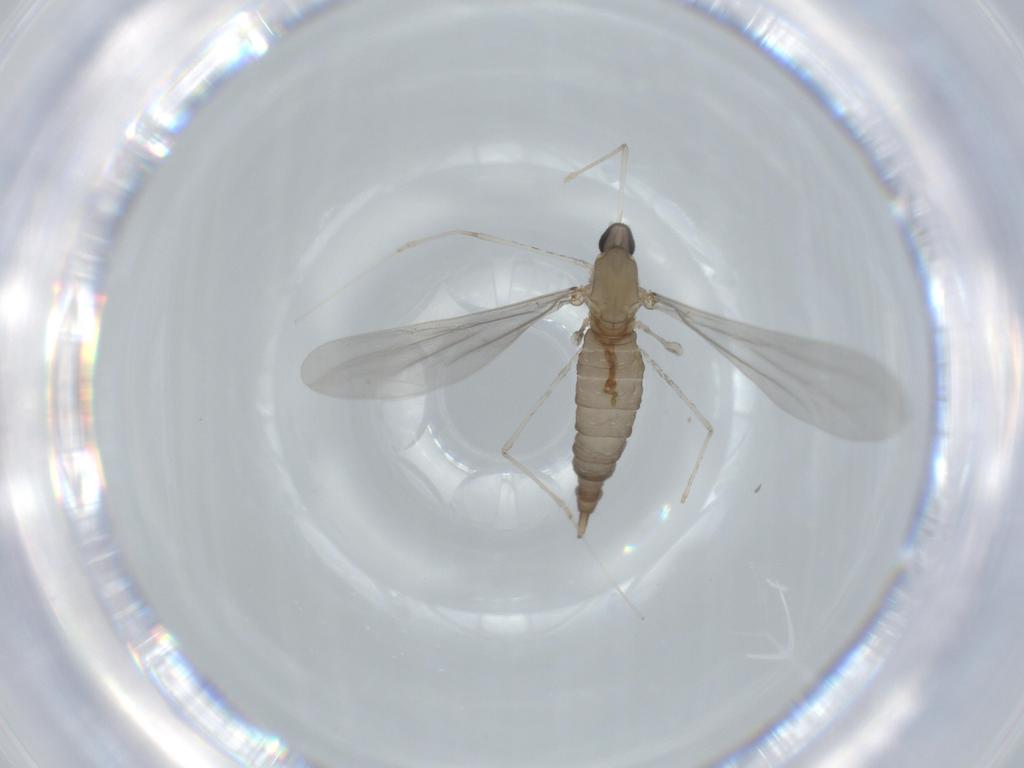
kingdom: Animalia
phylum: Arthropoda
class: Insecta
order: Diptera
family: Cecidomyiidae
